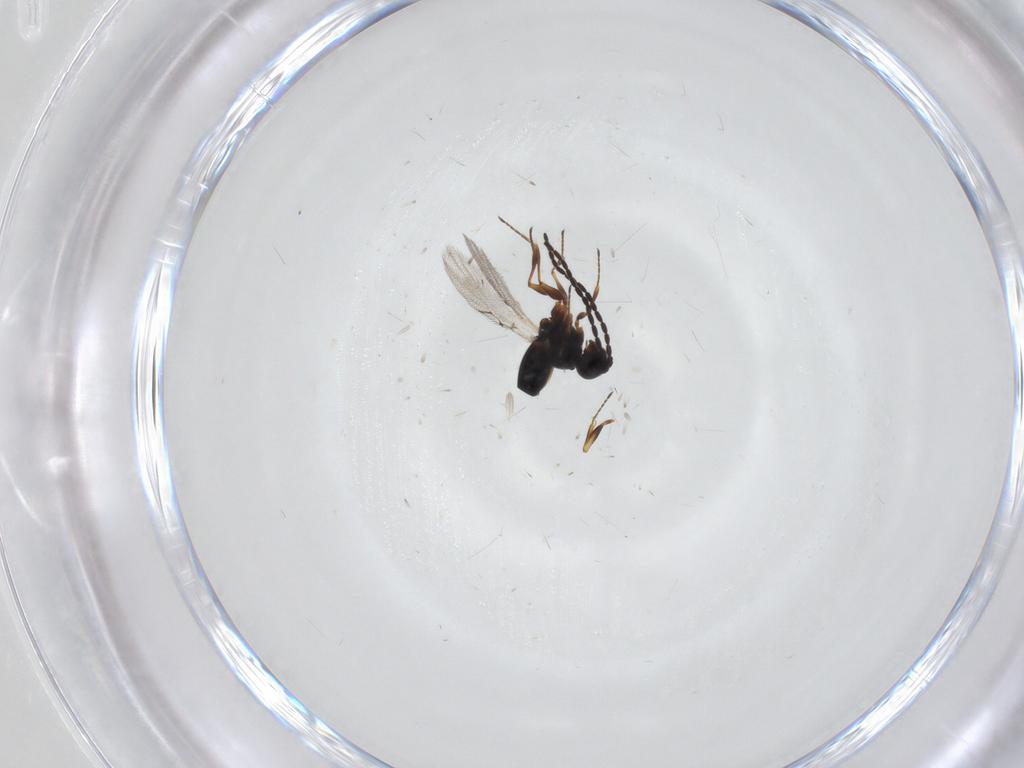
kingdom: Animalia
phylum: Arthropoda
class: Insecta
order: Hymenoptera
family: Figitidae
